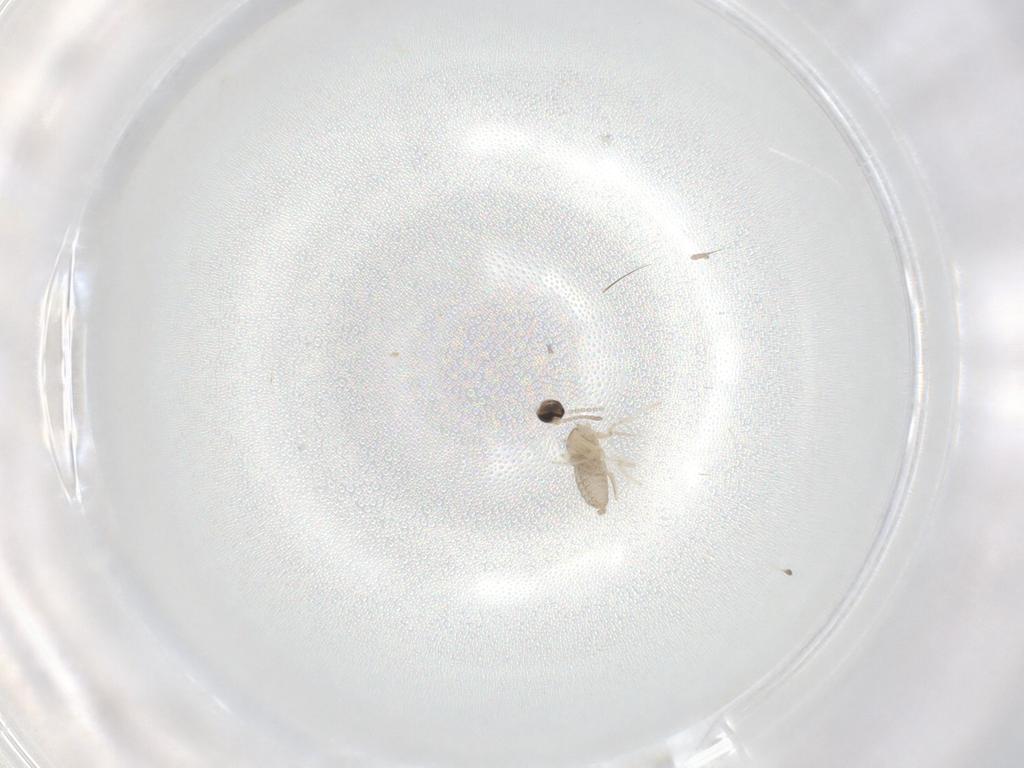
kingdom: Animalia
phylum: Arthropoda
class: Insecta
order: Diptera
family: Cecidomyiidae
